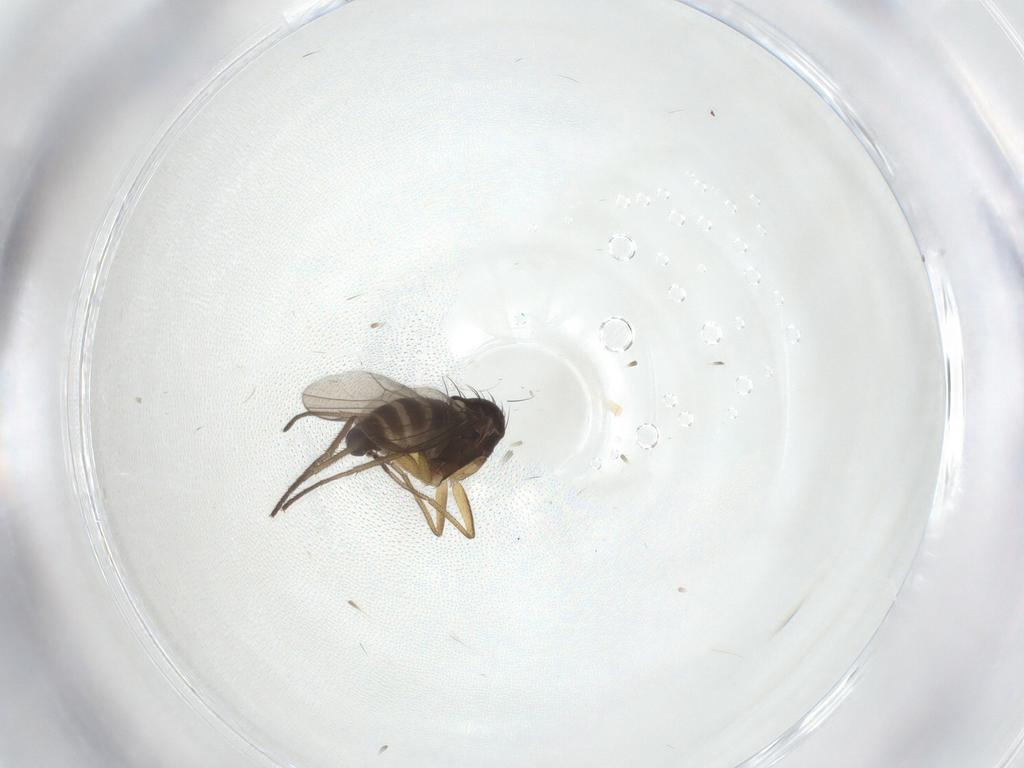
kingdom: Animalia
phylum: Arthropoda
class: Insecta
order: Diptera
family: Dolichopodidae
